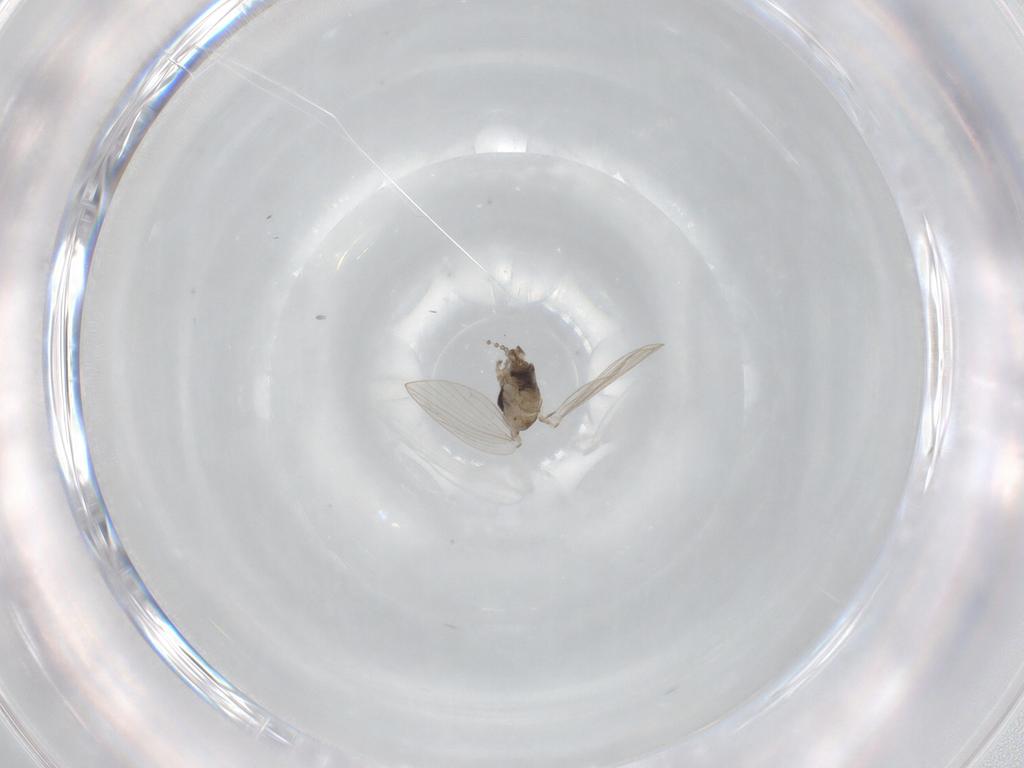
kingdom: Animalia
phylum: Arthropoda
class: Insecta
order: Diptera
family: Psychodidae
